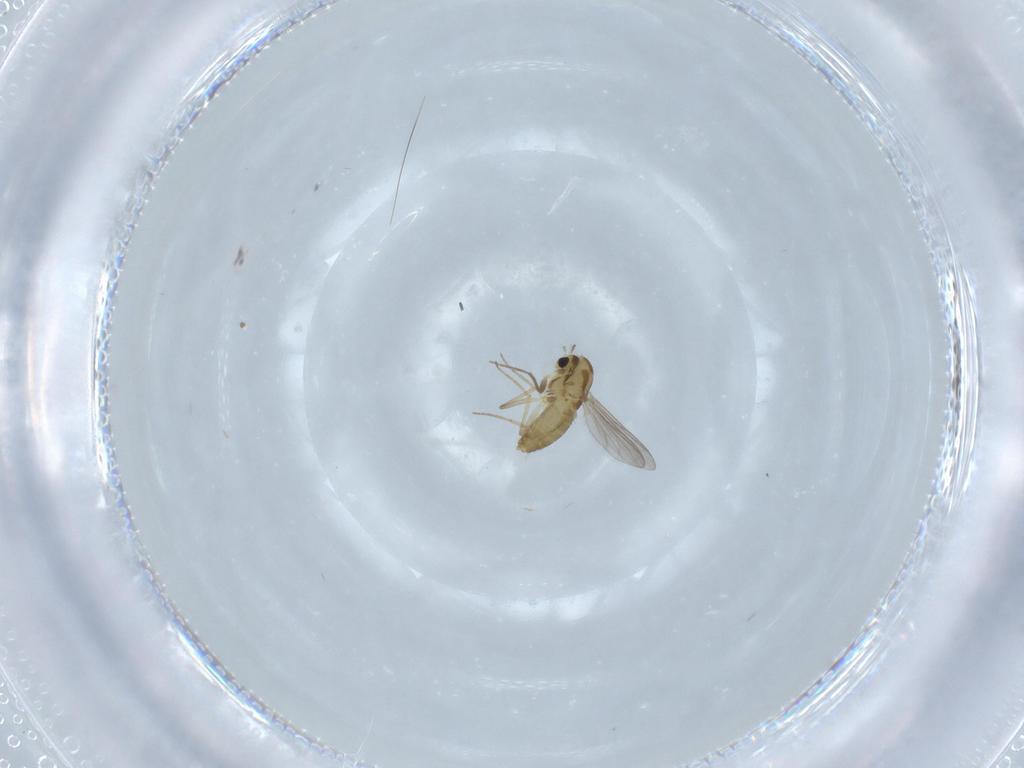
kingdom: Animalia
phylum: Arthropoda
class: Insecta
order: Diptera
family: Chironomidae
